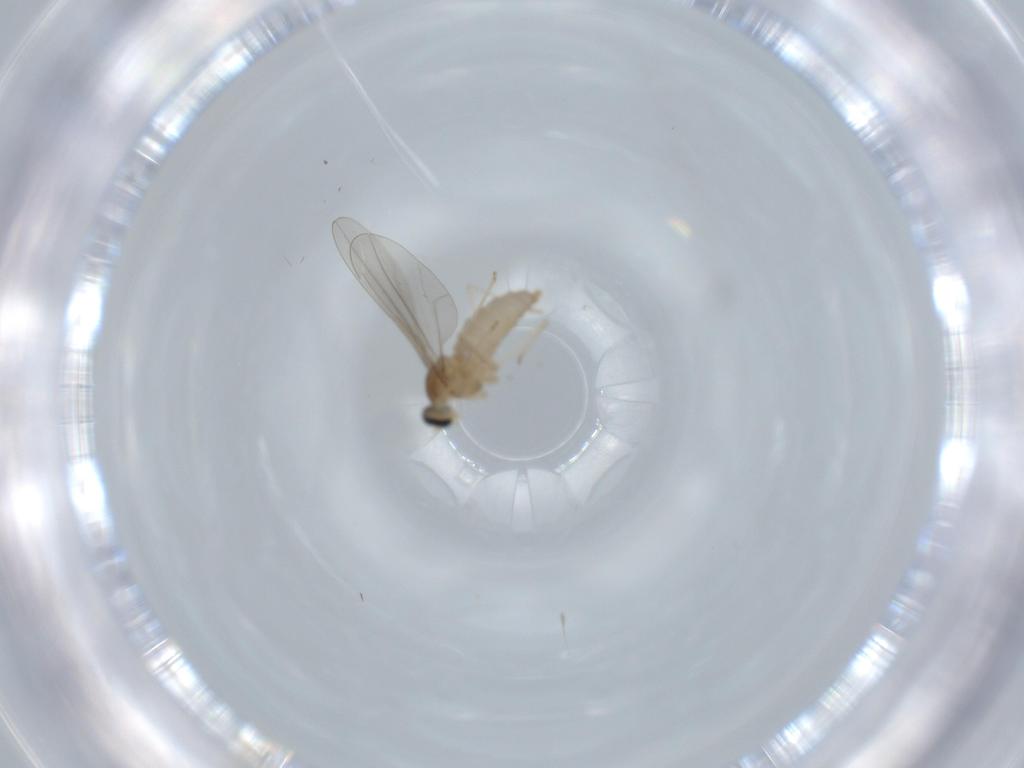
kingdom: Animalia
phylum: Arthropoda
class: Insecta
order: Diptera
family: Cecidomyiidae
